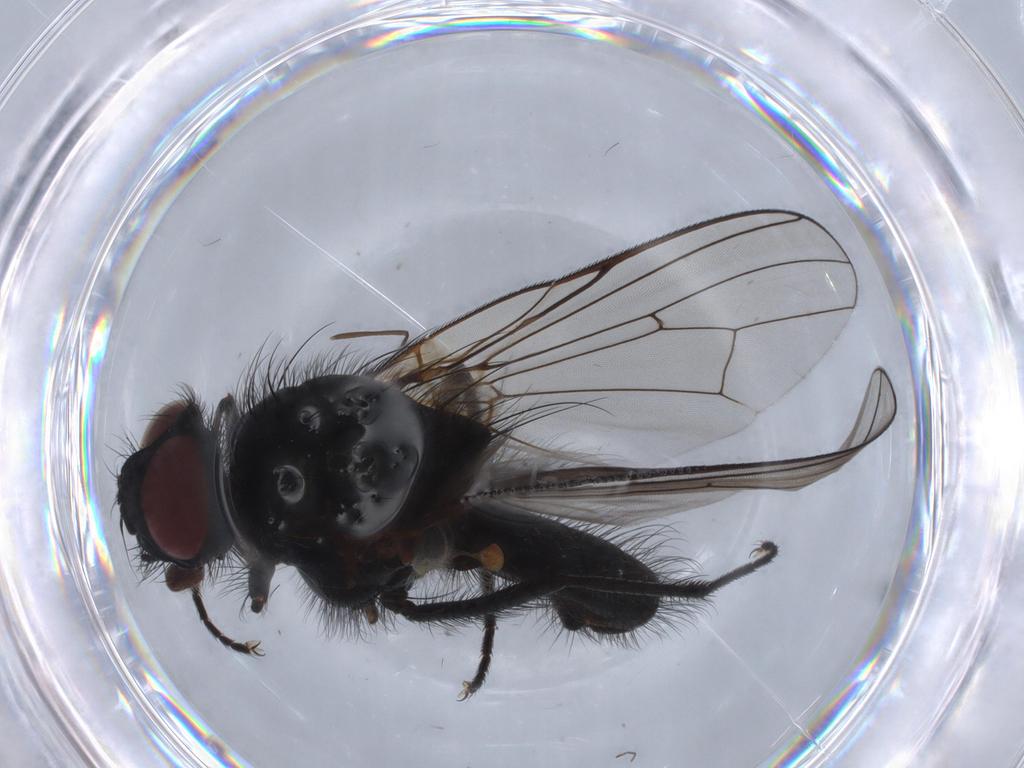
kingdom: Animalia
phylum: Arthropoda
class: Insecta
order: Diptera
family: Anthomyiidae
